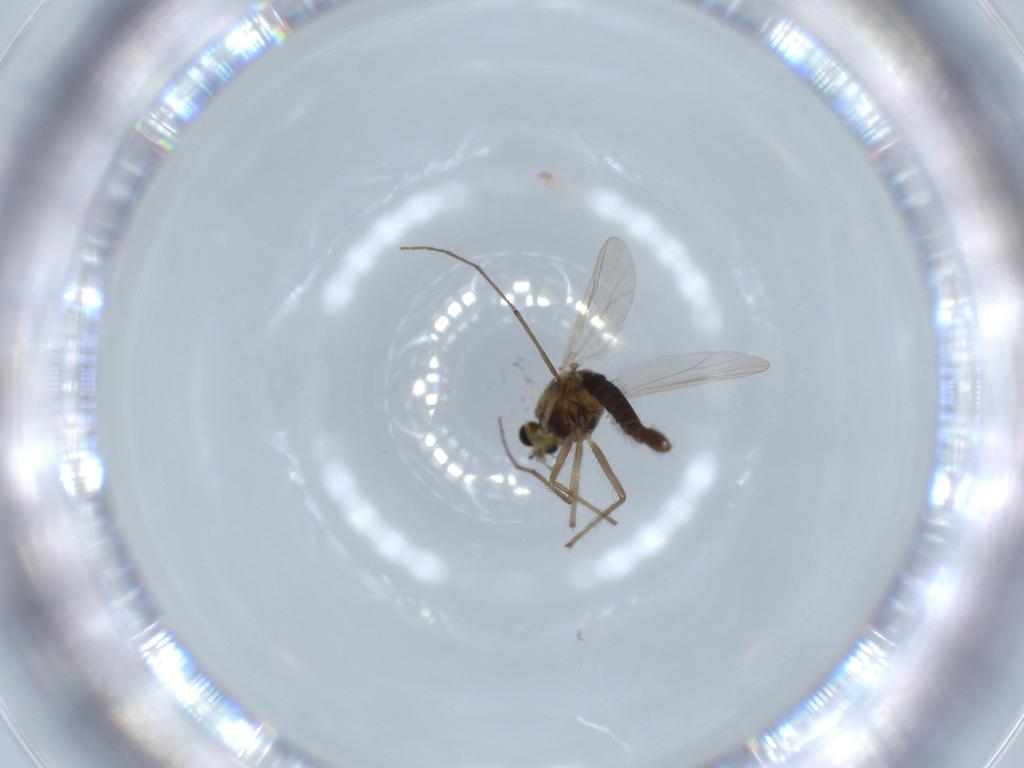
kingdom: Animalia
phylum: Arthropoda
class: Insecta
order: Diptera
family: Chironomidae
